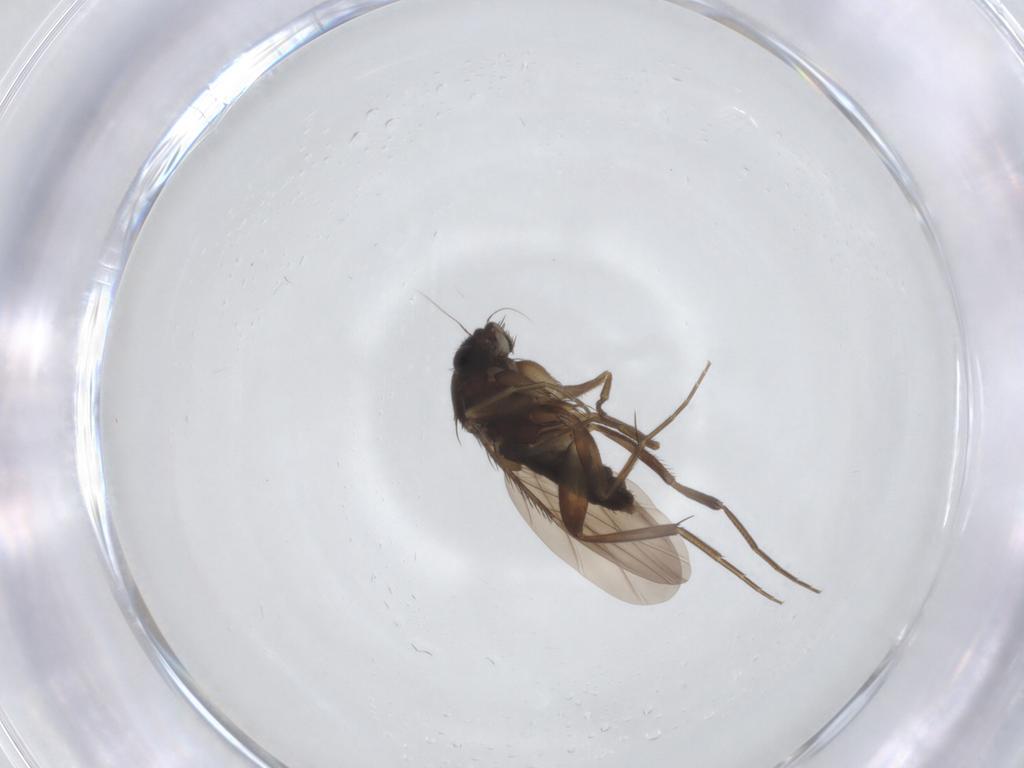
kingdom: Animalia
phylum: Arthropoda
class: Insecta
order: Diptera
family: Sciaridae
